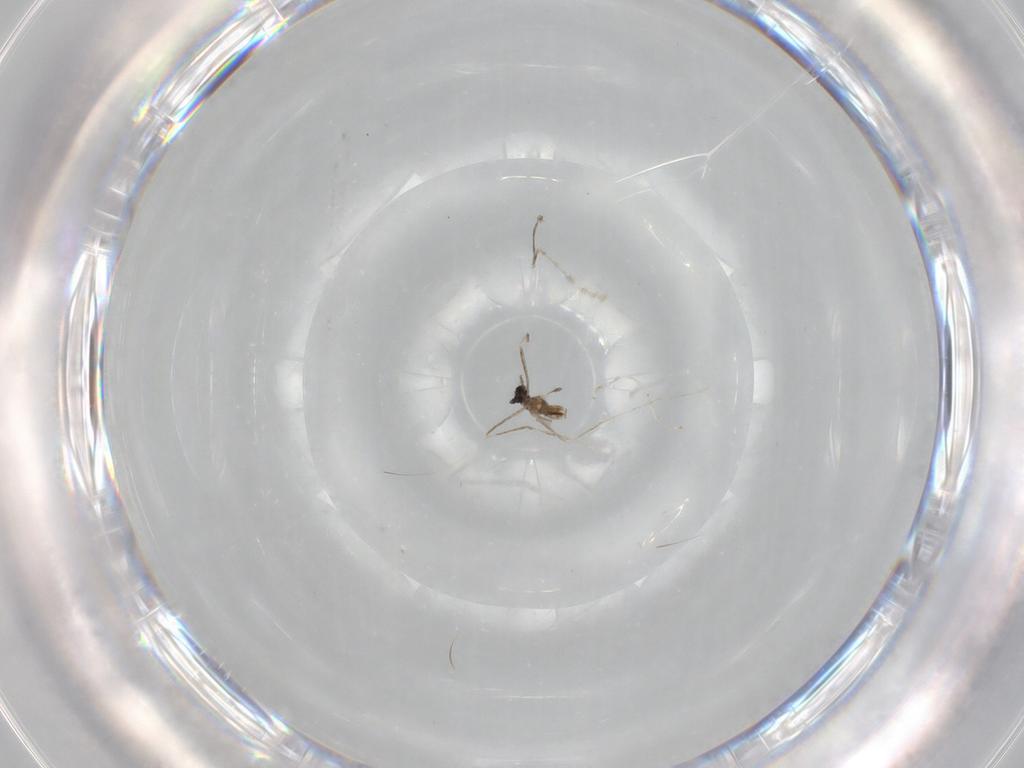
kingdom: Animalia
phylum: Arthropoda
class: Insecta
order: Diptera
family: Cecidomyiidae
